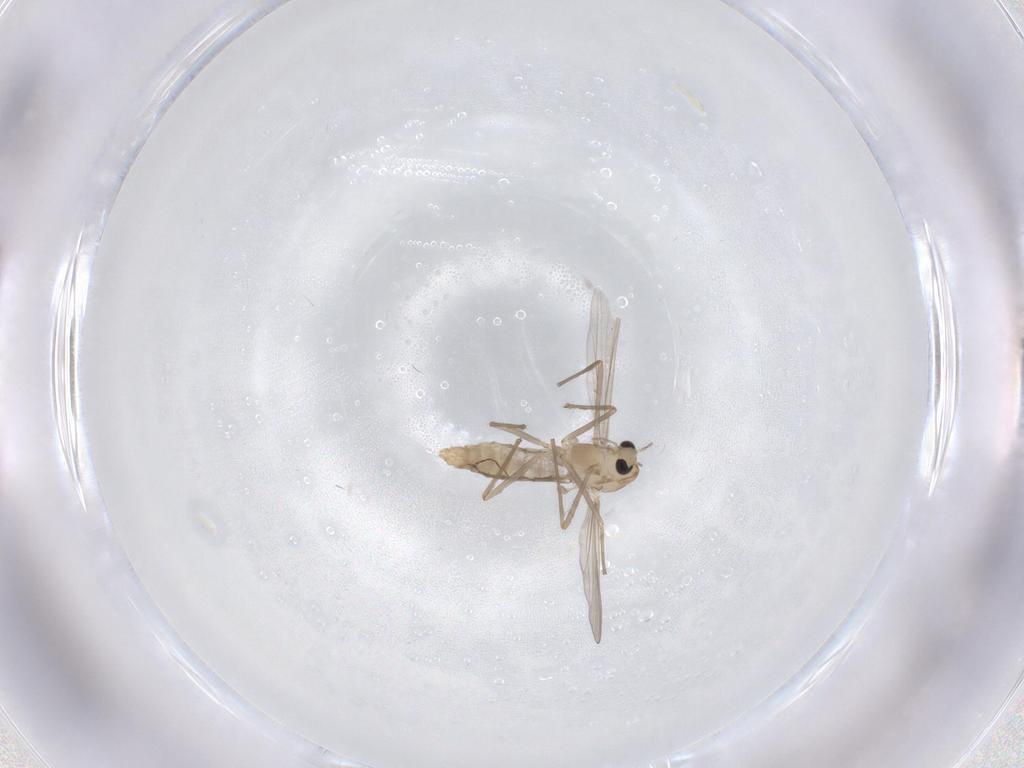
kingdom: Animalia
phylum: Arthropoda
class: Insecta
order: Diptera
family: Chironomidae
